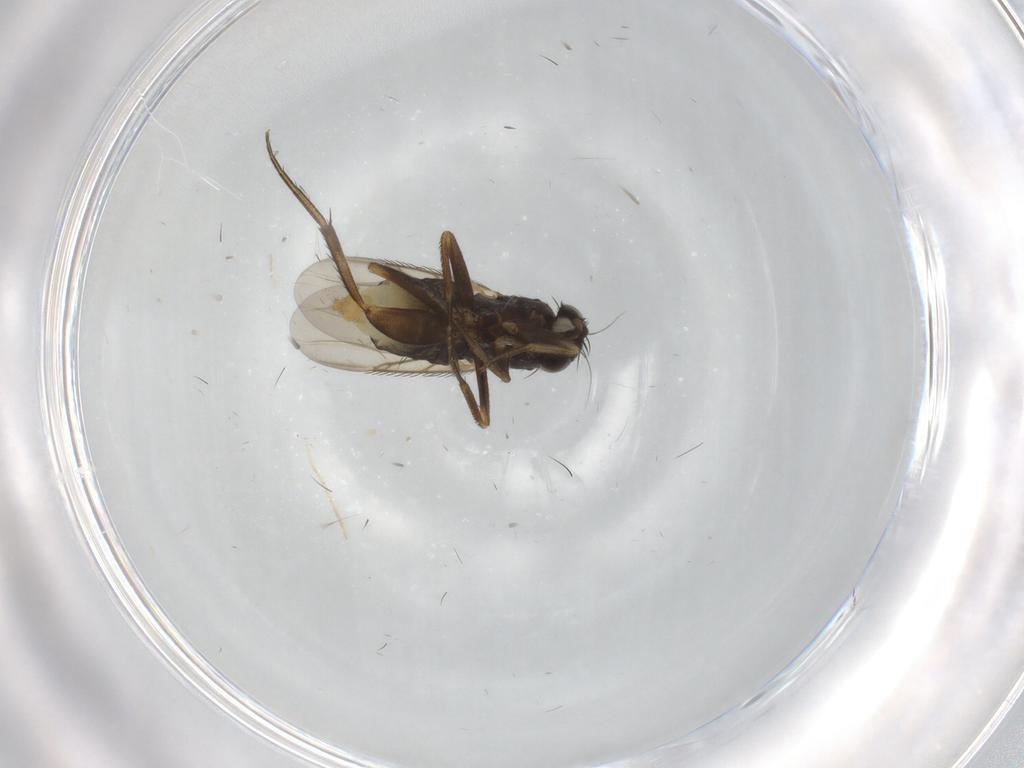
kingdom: Animalia
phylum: Arthropoda
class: Insecta
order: Diptera
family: Phoridae
